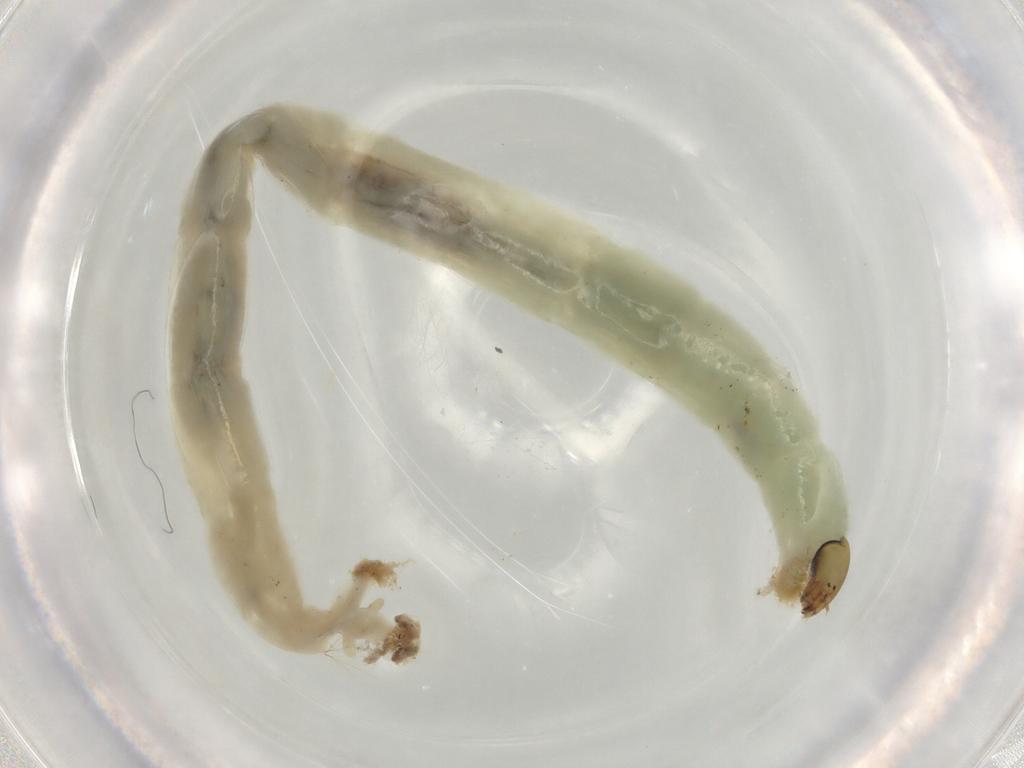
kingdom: Animalia
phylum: Arthropoda
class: Insecta
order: Diptera
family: Chironomidae
